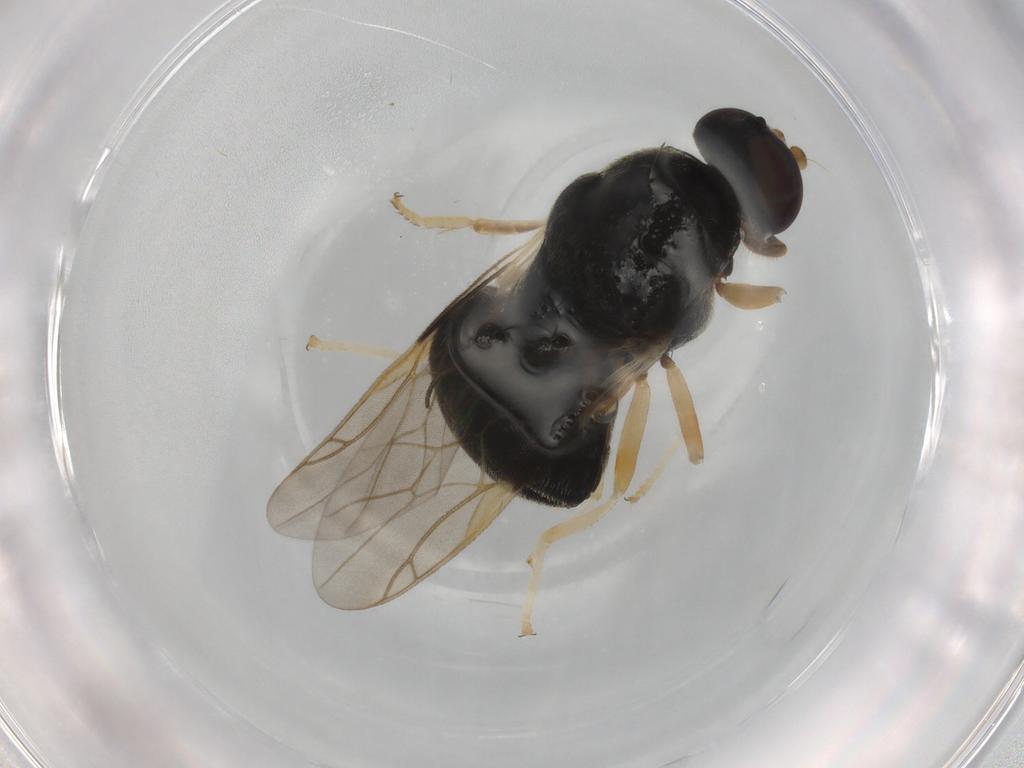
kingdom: Animalia
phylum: Arthropoda
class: Insecta
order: Diptera
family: Stratiomyidae
